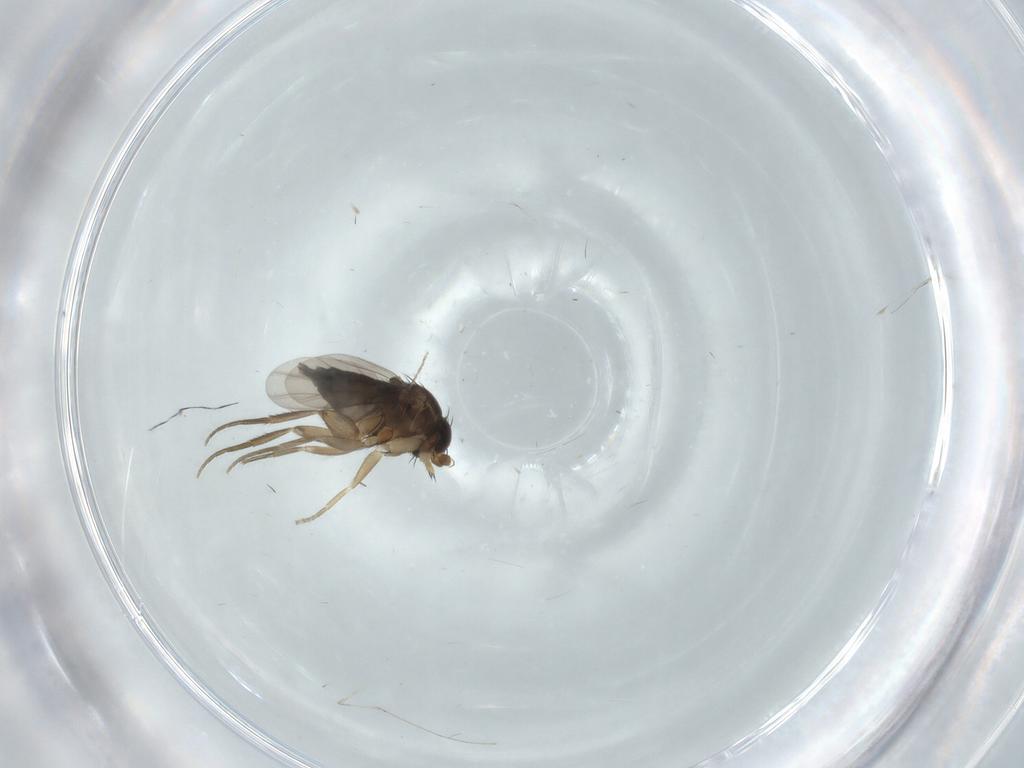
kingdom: Animalia
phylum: Arthropoda
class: Insecta
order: Diptera
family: Phoridae
